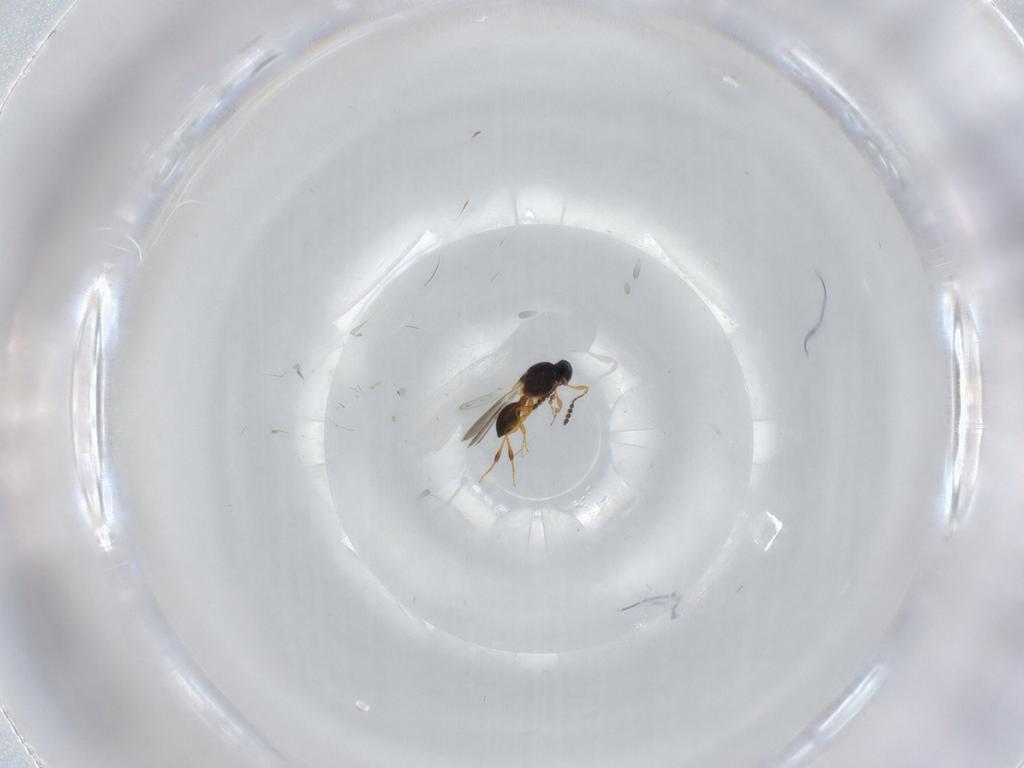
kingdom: Animalia
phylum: Arthropoda
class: Insecta
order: Hymenoptera
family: Platygastridae
